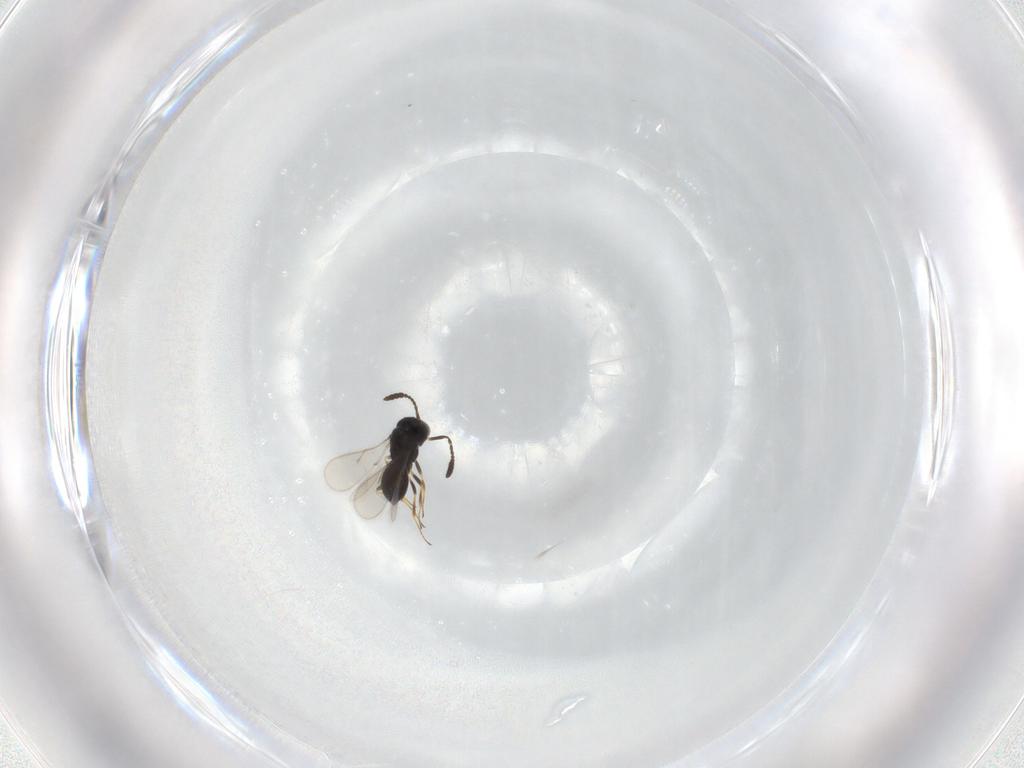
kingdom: Animalia
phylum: Arthropoda
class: Insecta
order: Hymenoptera
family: Scelionidae
